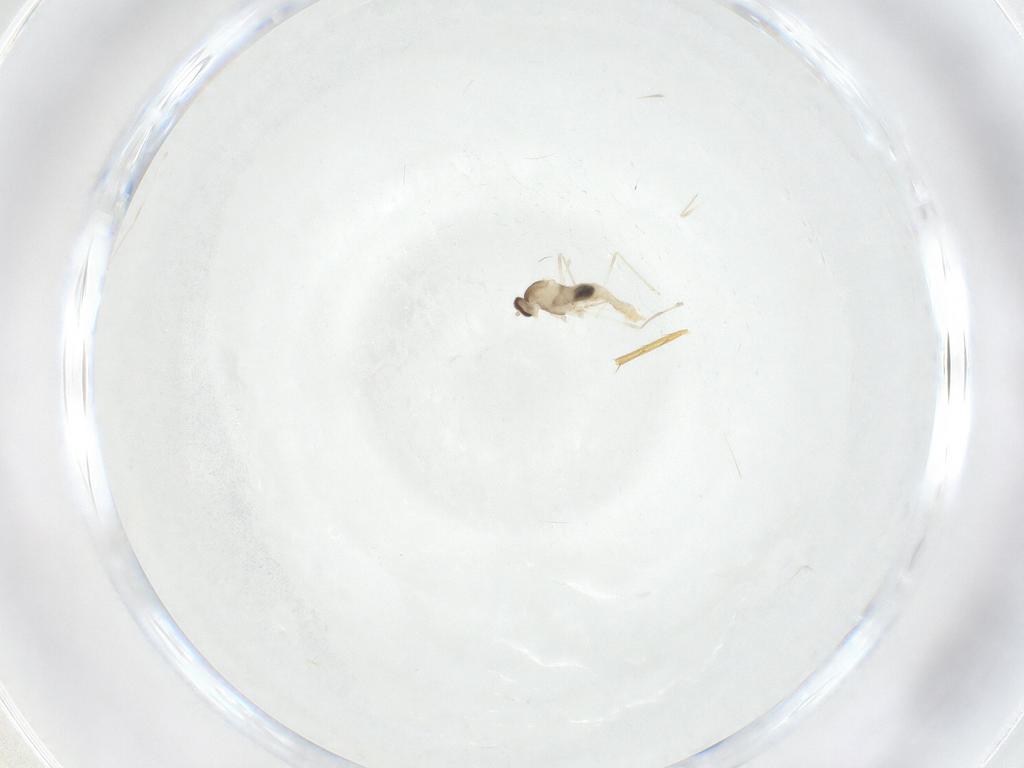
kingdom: Animalia
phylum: Arthropoda
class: Insecta
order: Diptera
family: Cecidomyiidae
